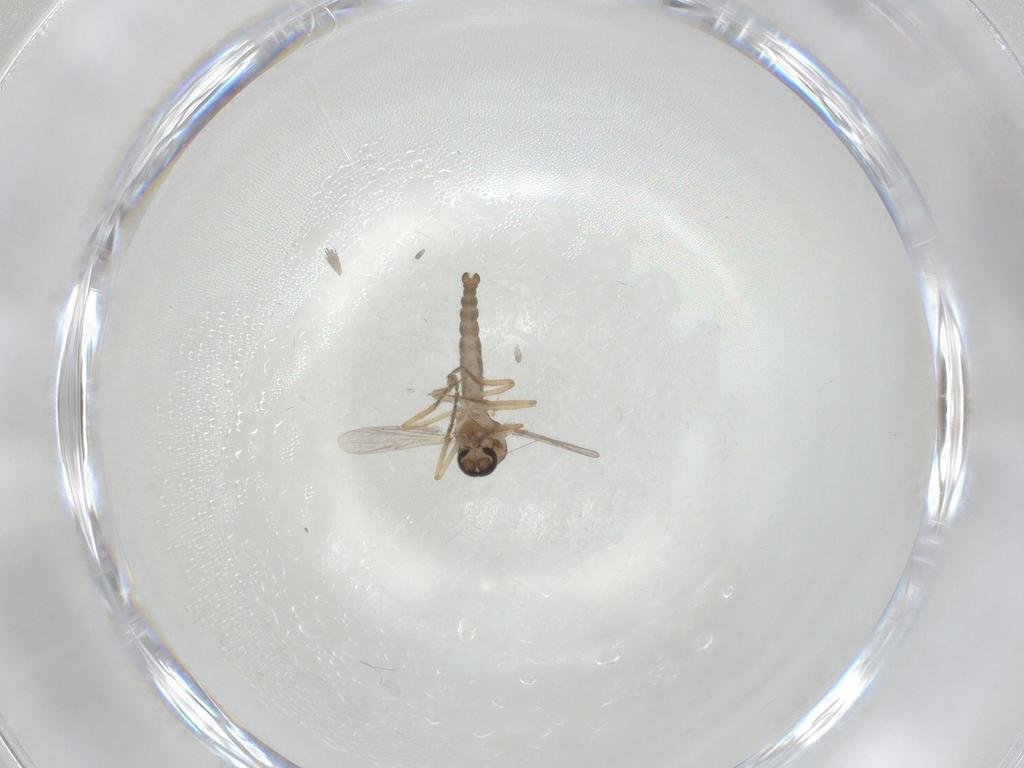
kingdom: Animalia
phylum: Arthropoda
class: Insecta
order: Diptera
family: Ceratopogonidae
